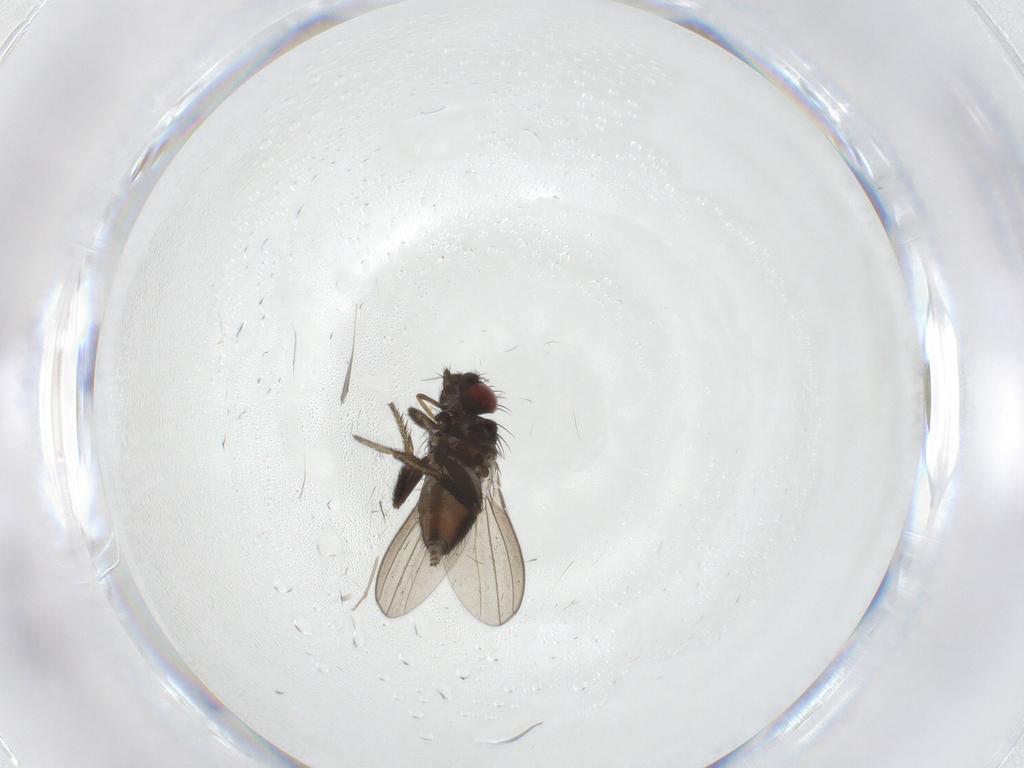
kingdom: Animalia
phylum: Arthropoda
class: Insecta
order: Diptera
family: Milichiidae
